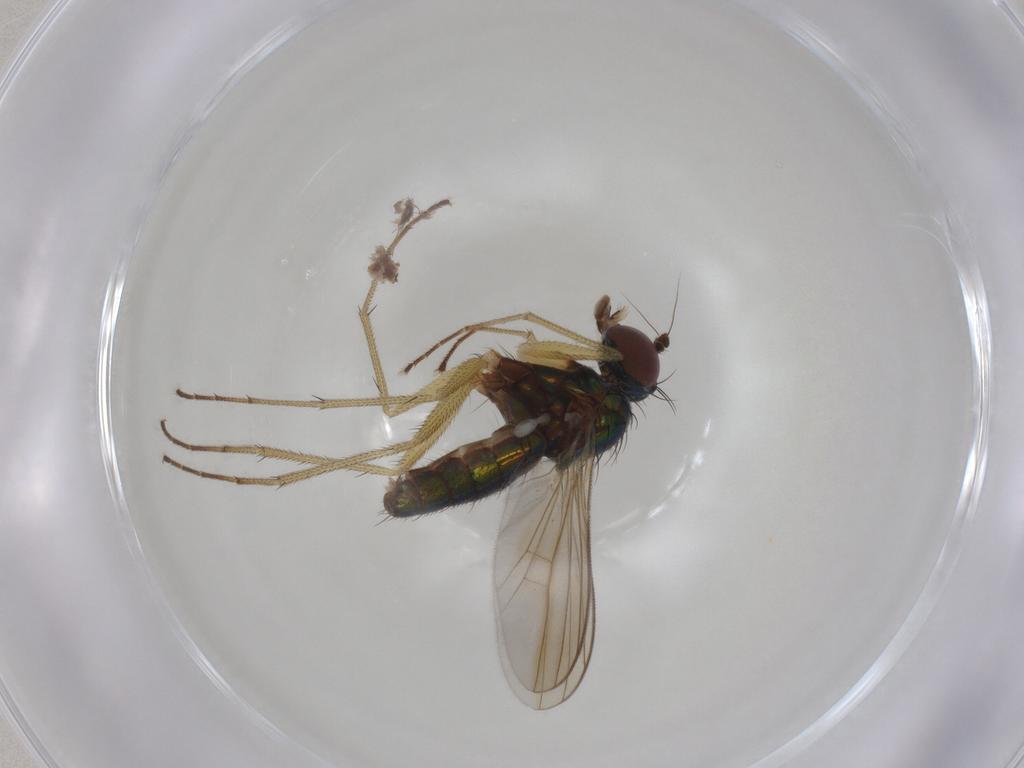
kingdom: Animalia
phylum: Arthropoda
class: Insecta
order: Diptera
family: Dolichopodidae
